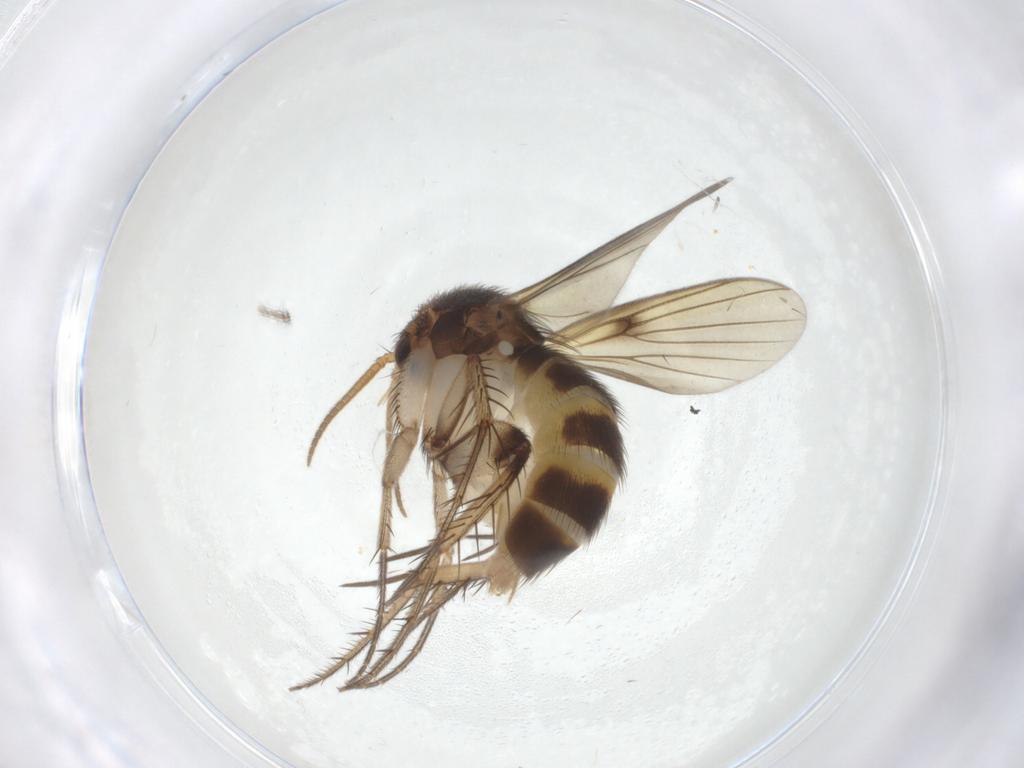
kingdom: Animalia
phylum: Arthropoda
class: Insecta
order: Diptera
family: Mycetophilidae
